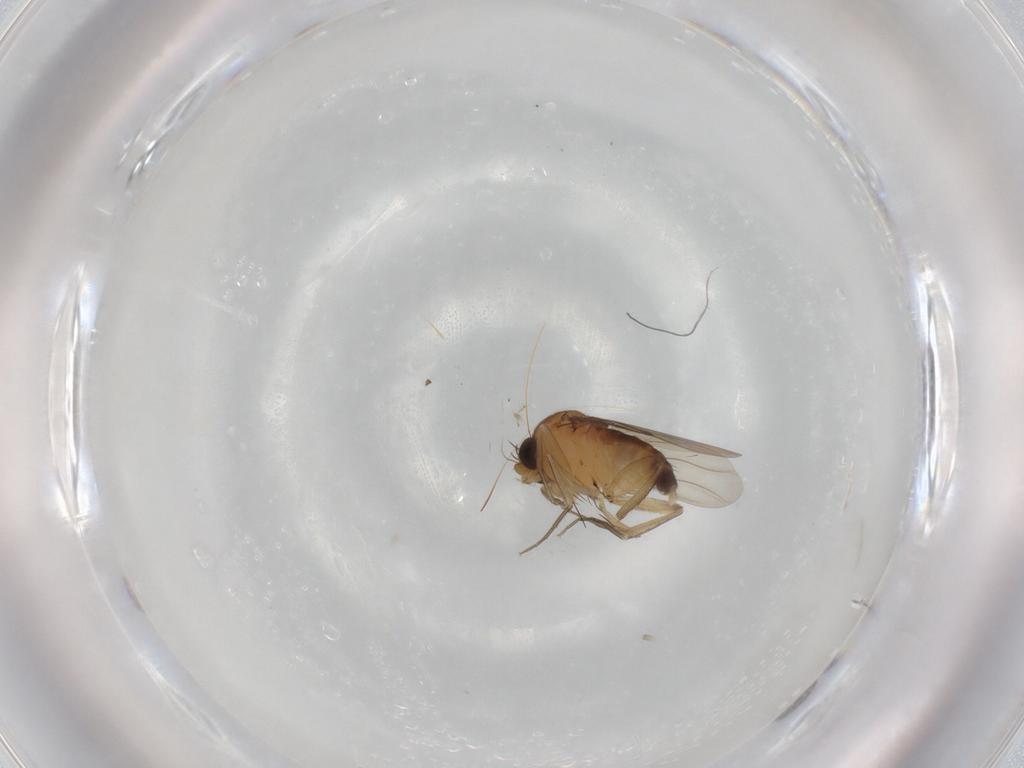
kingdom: Animalia
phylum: Arthropoda
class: Insecta
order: Diptera
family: Phoridae
